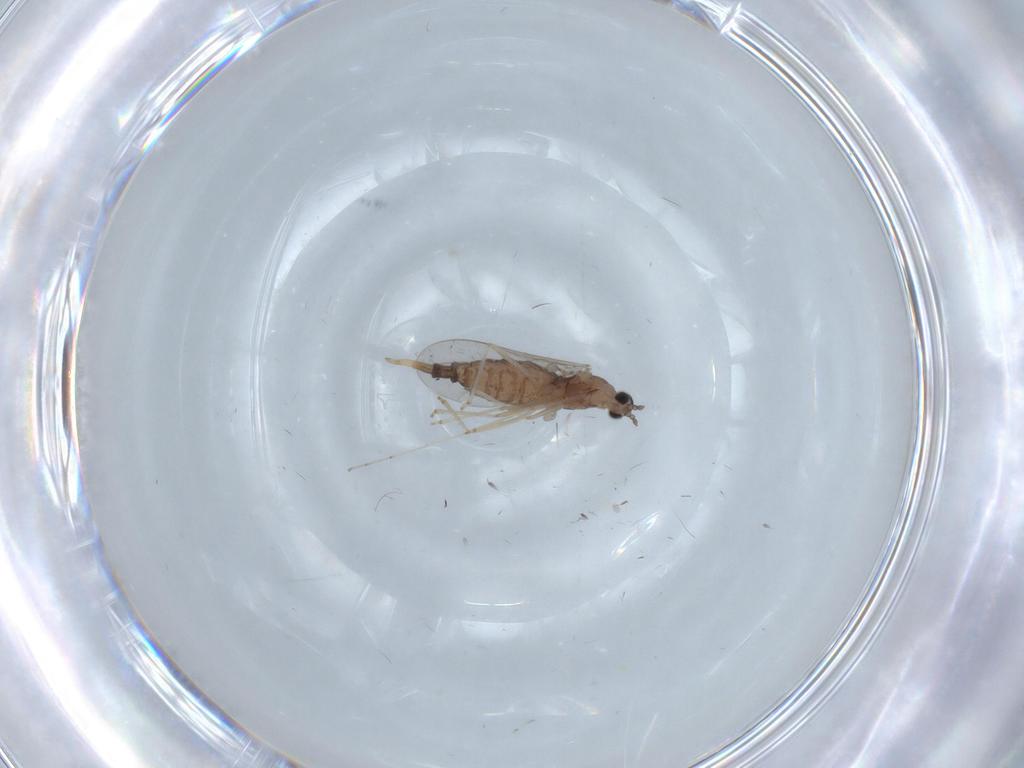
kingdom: Animalia
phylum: Arthropoda
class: Insecta
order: Diptera
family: Cecidomyiidae
